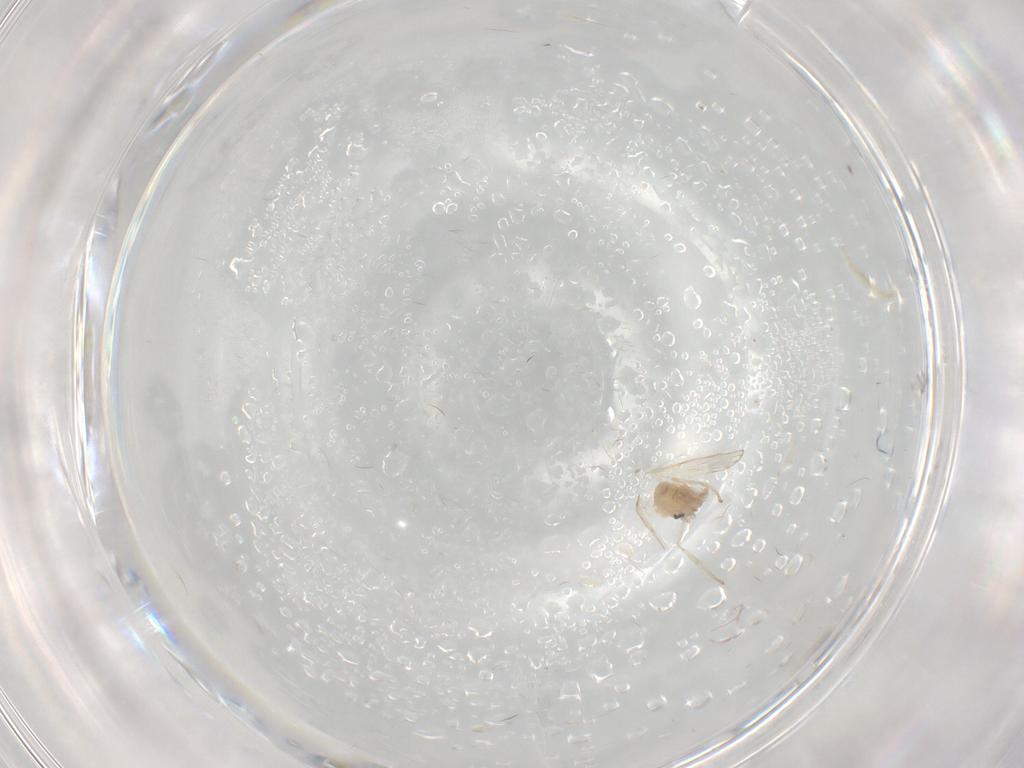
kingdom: Animalia
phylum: Arthropoda
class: Insecta
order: Diptera
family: Psychodidae
